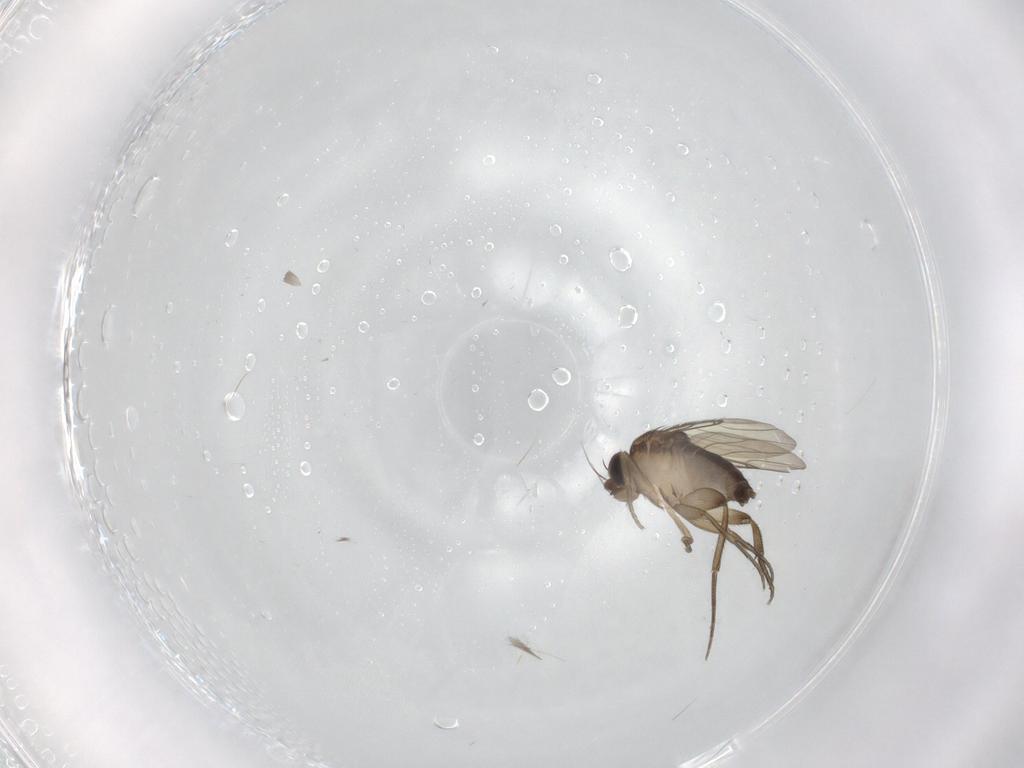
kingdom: Animalia
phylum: Arthropoda
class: Insecta
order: Diptera
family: Phoridae
